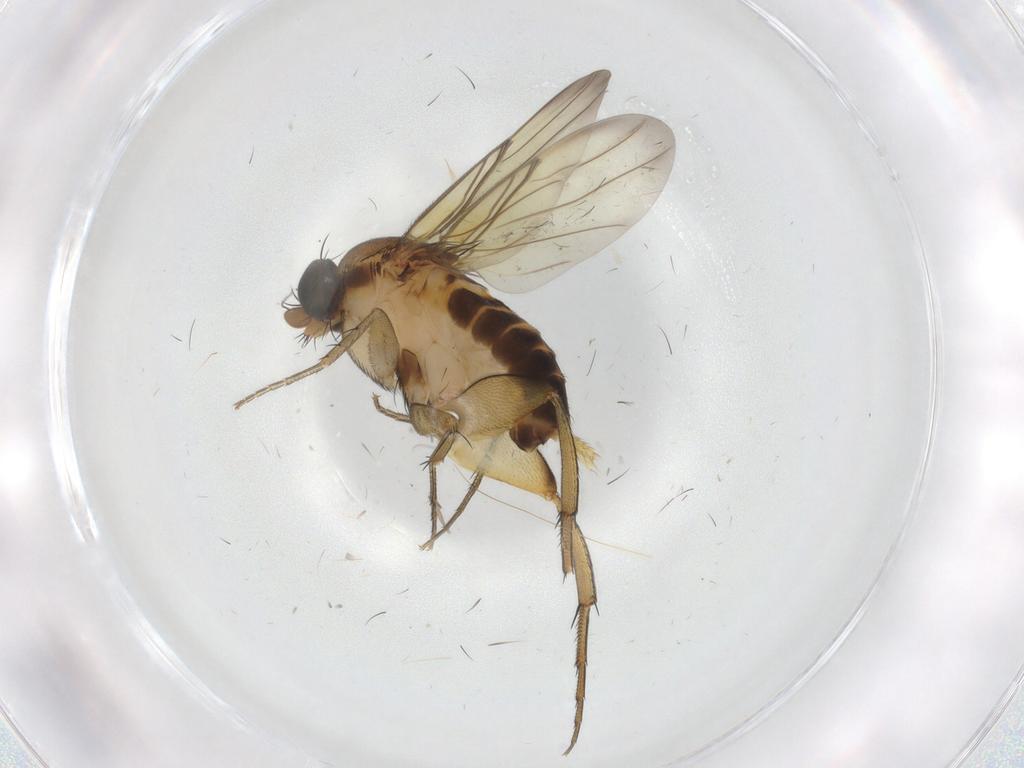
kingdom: Animalia
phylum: Arthropoda
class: Insecta
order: Diptera
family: Phoridae
